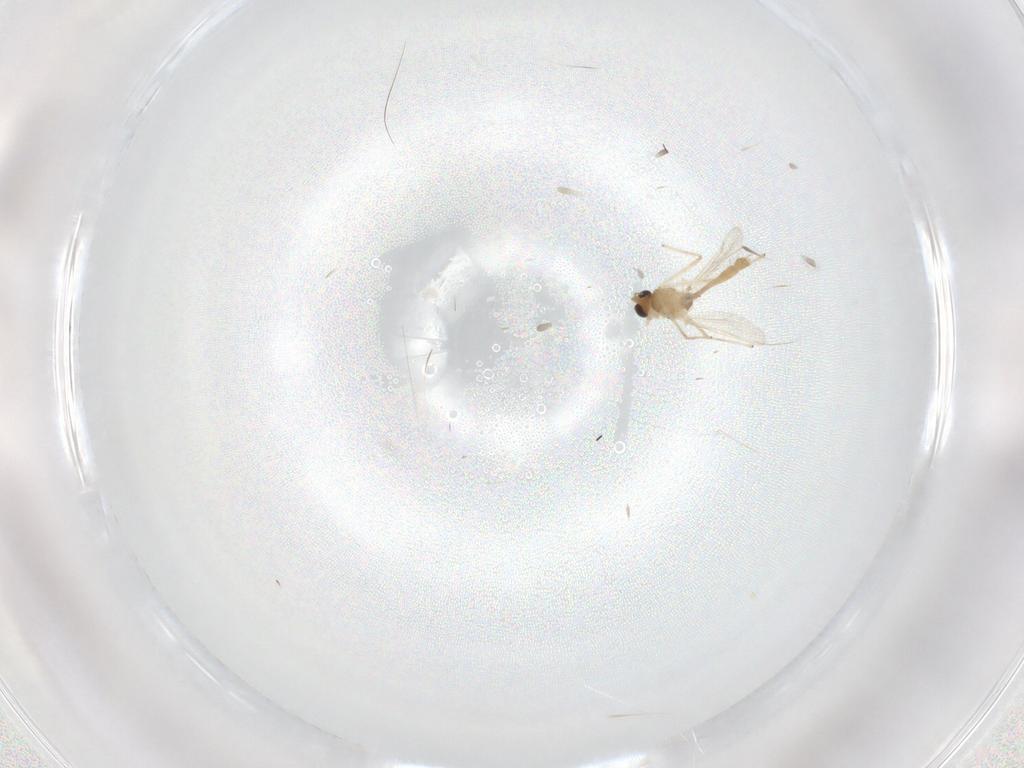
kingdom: Animalia
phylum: Arthropoda
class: Insecta
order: Diptera
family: Chironomidae
